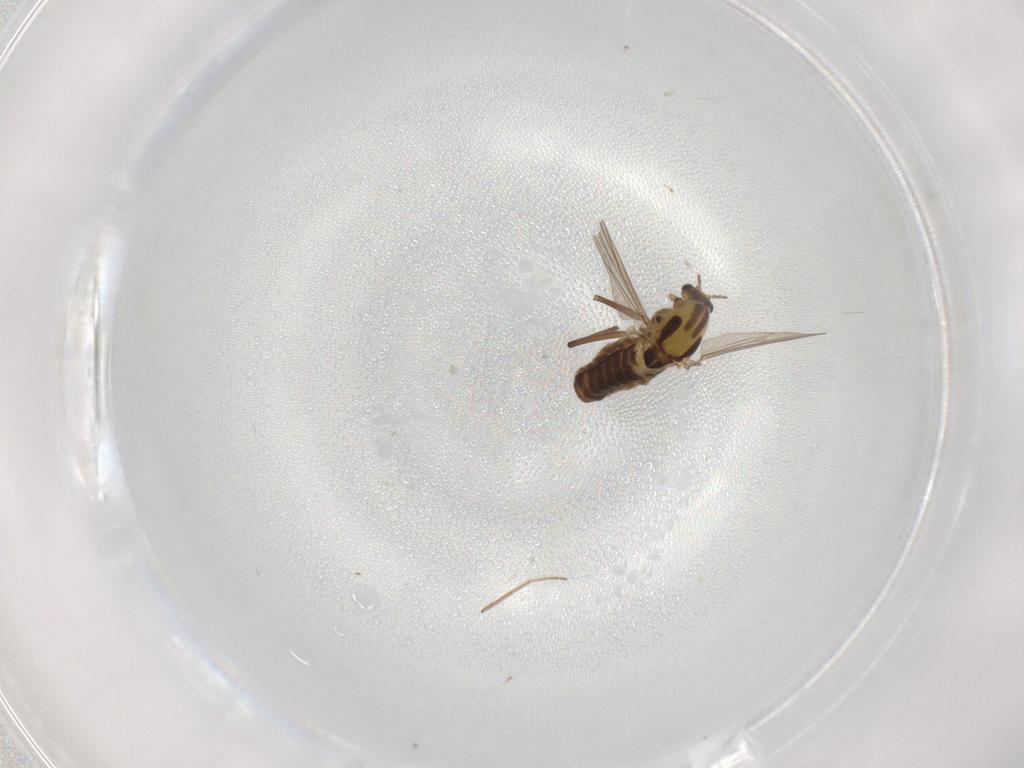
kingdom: Animalia
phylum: Arthropoda
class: Insecta
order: Diptera
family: Chironomidae
